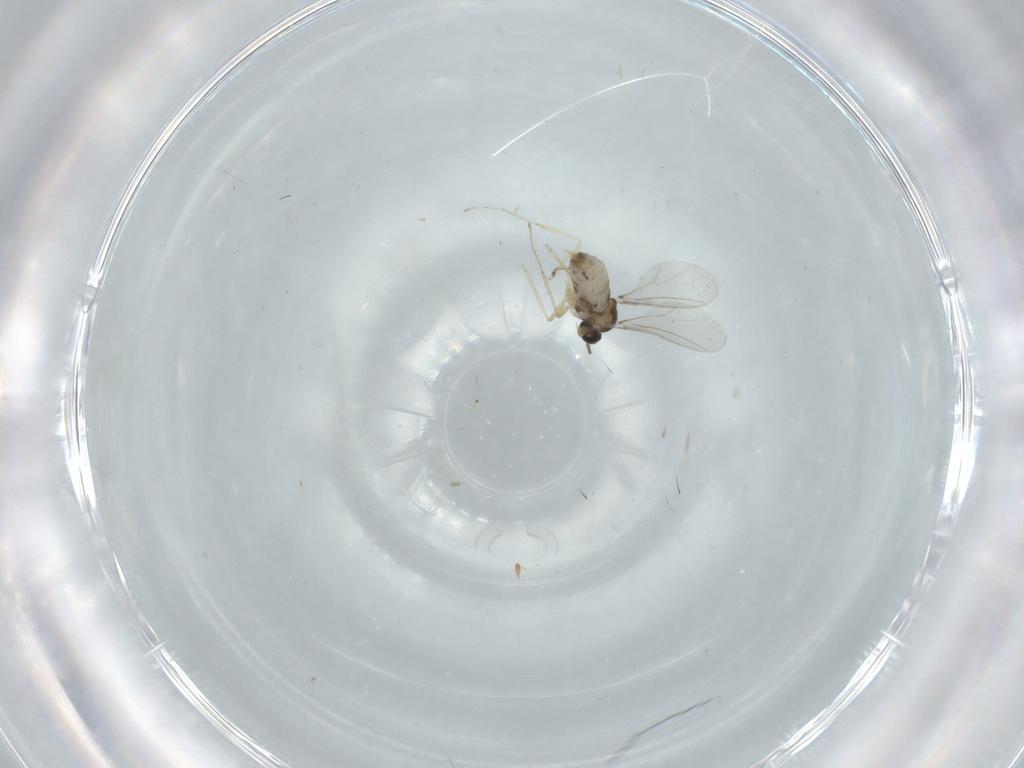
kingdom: Animalia
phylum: Arthropoda
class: Insecta
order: Diptera
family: Cecidomyiidae
